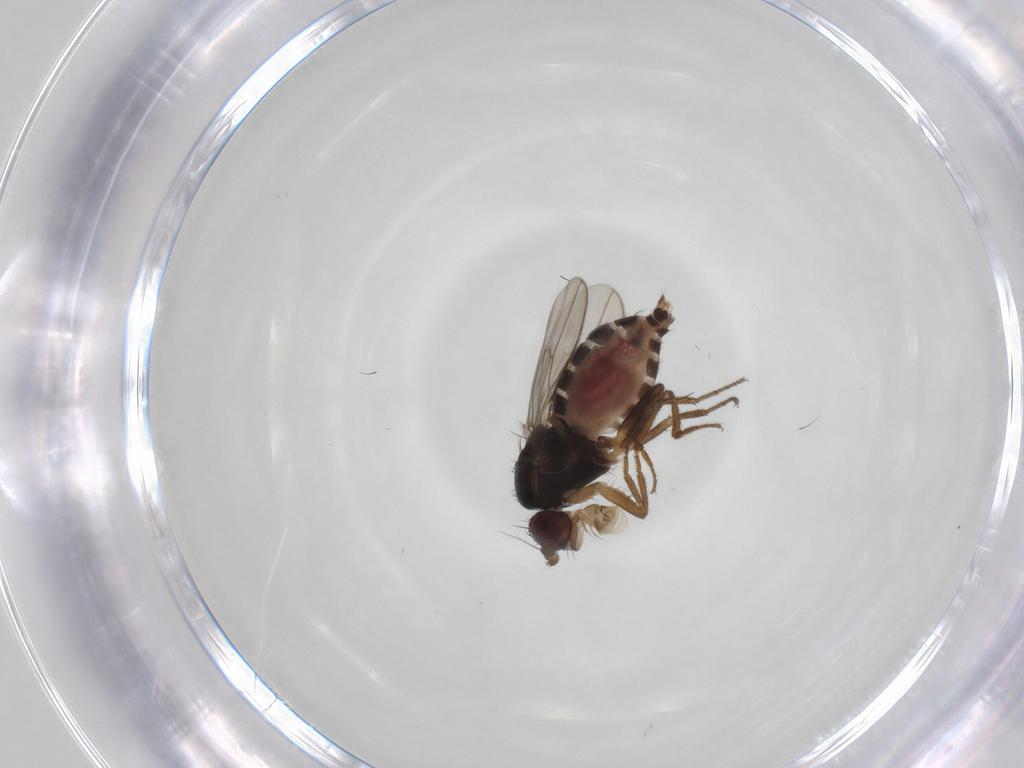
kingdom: Animalia
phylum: Arthropoda
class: Insecta
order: Diptera
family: Sphaeroceridae
